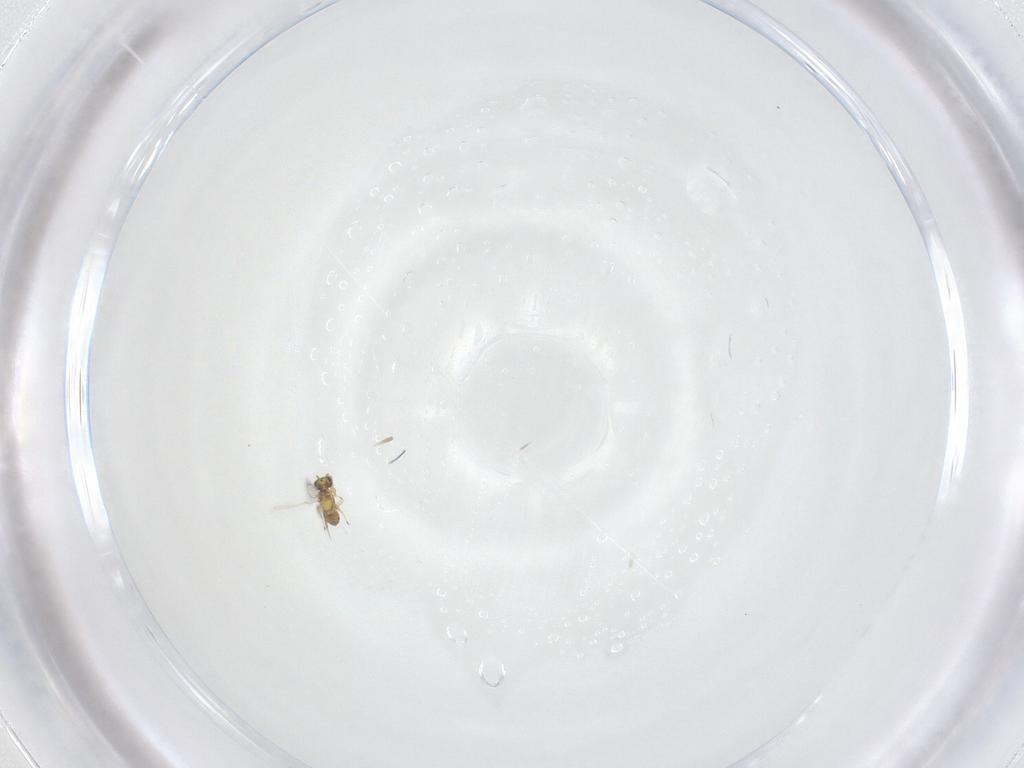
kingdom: Animalia
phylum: Arthropoda
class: Insecta
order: Hymenoptera
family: Mymaridae
